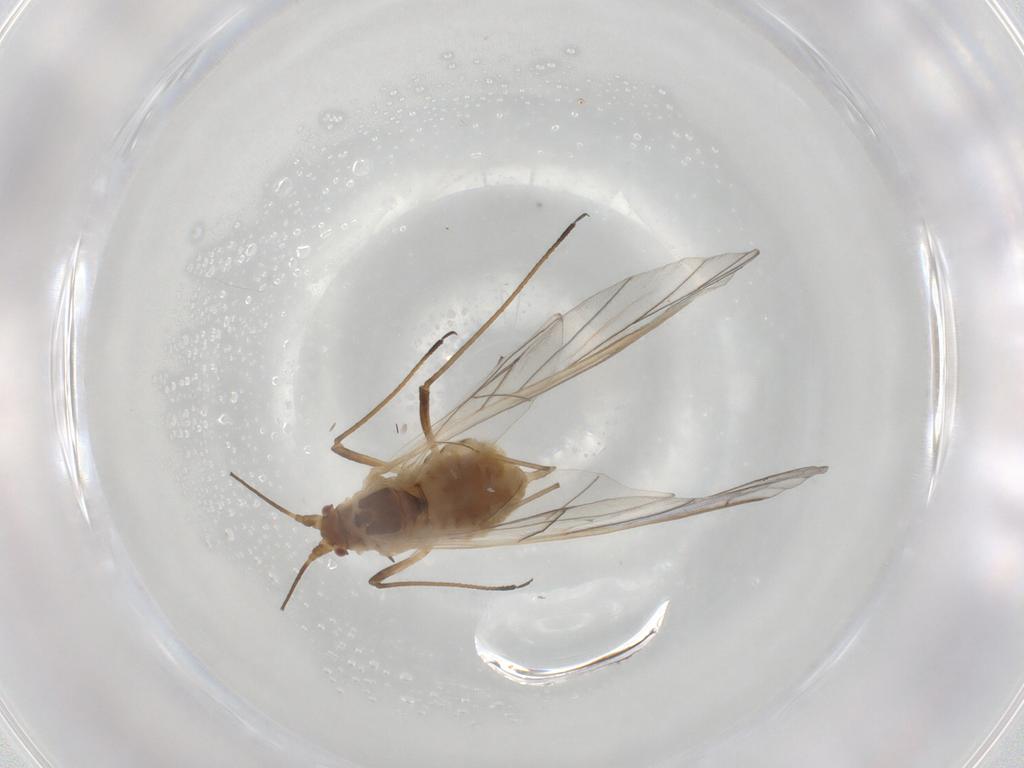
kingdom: Animalia
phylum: Arthropoda
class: Insecta
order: Hemiptera
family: Aphididae
